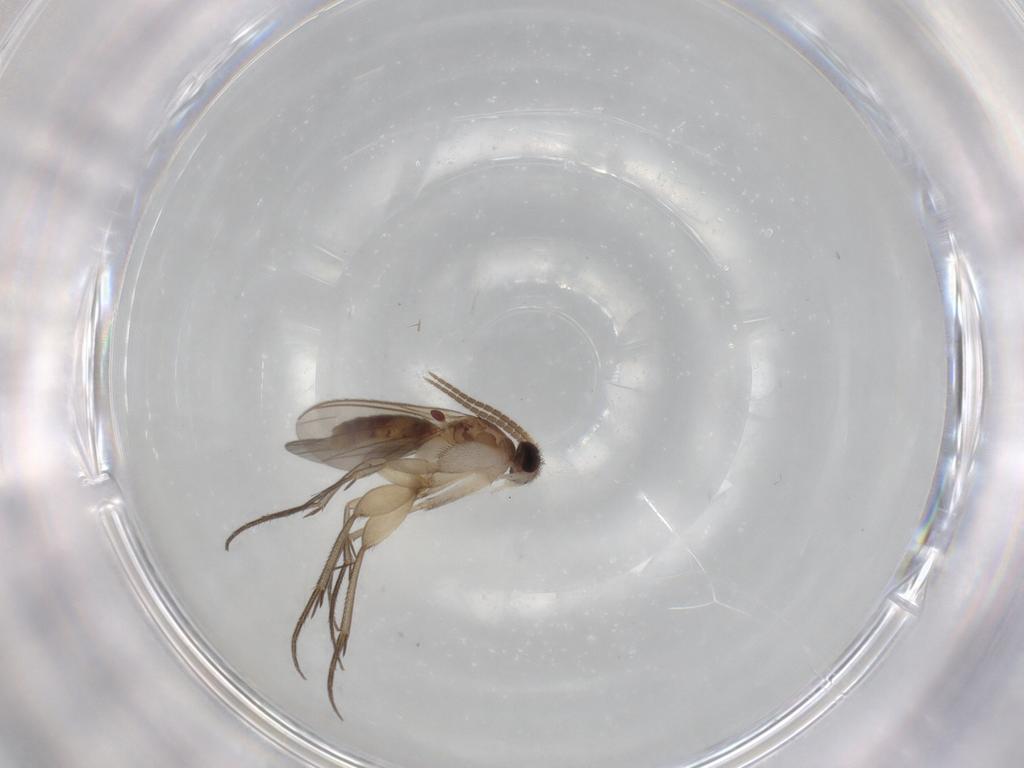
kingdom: Animalia
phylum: Arthropoda
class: Insecta
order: Diptera
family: Mycetophilidae
